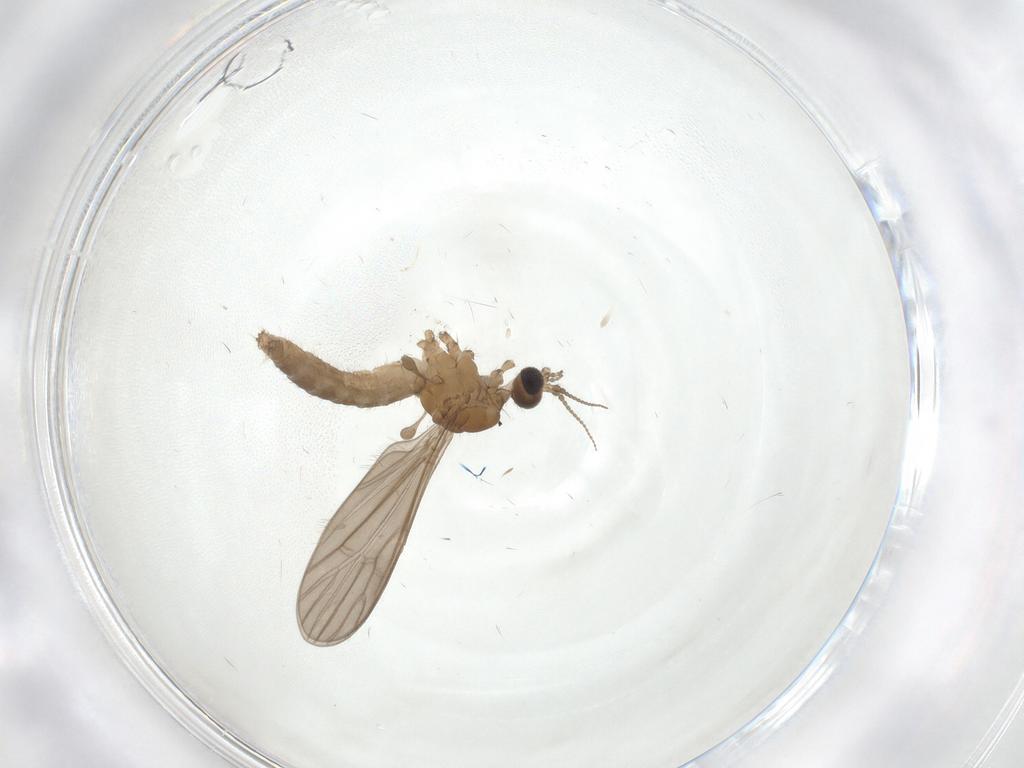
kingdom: Animalia
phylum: Arthropoda
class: Insecta
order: Diptera
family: Limoniidae
